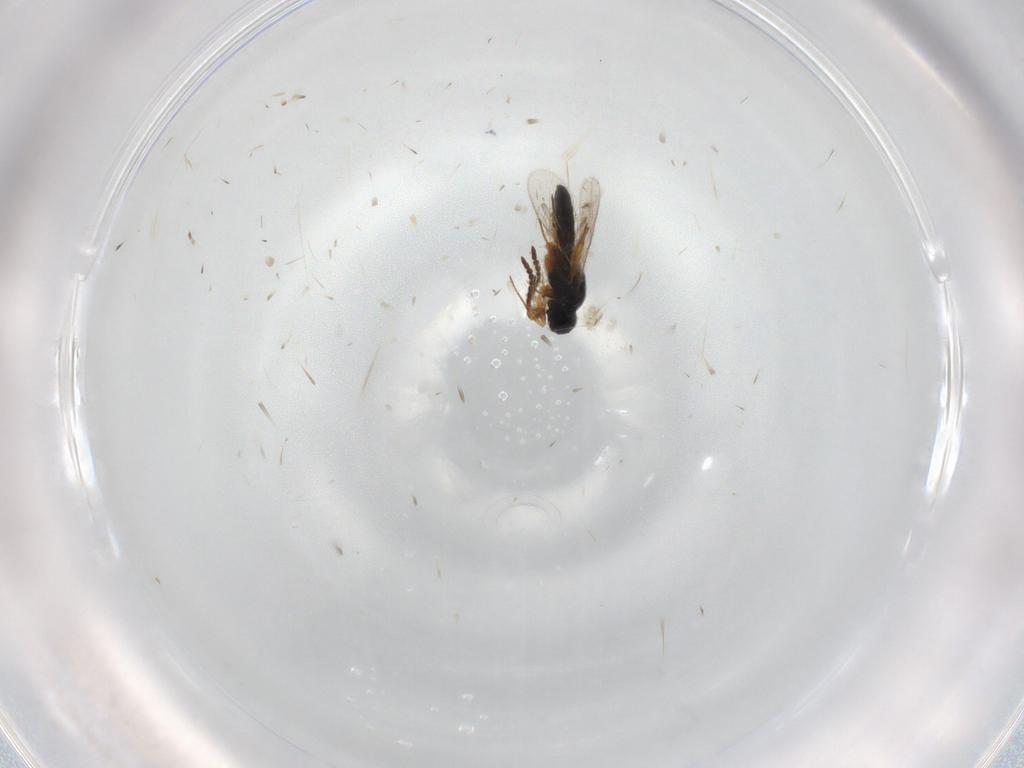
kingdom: Animalia
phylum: Arthropoda
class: Insecta
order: Hymenoptera
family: Scelionidae
